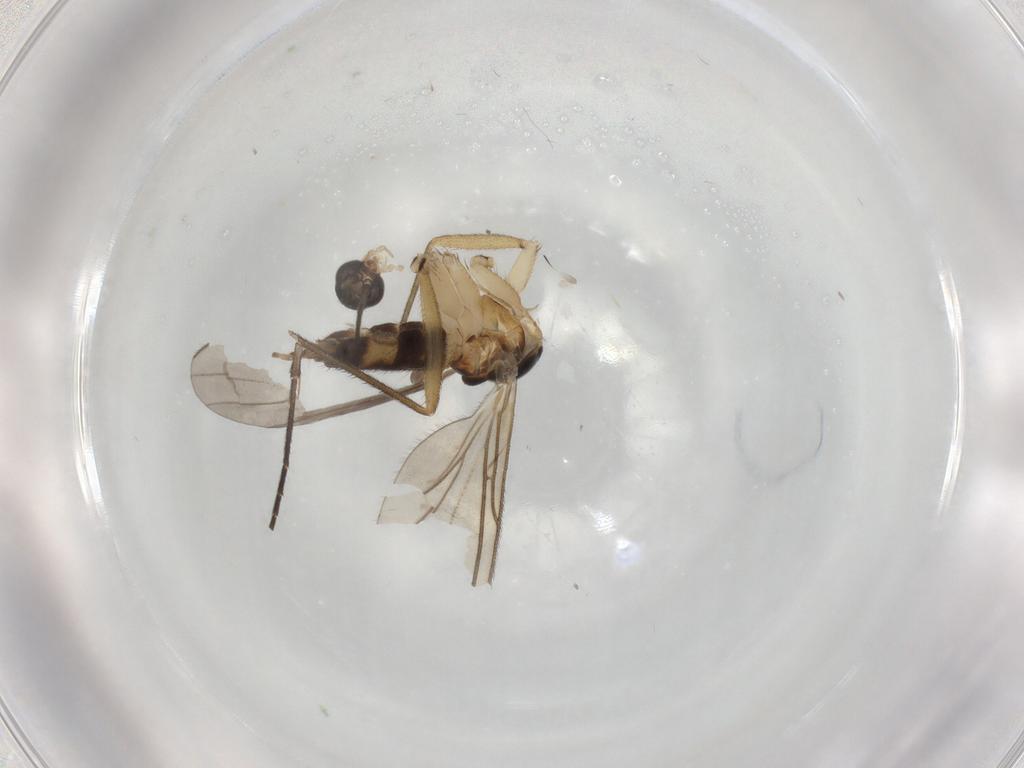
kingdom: Animalia
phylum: Arthropoda
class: Insecta
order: Diptera
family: Sciaridae
